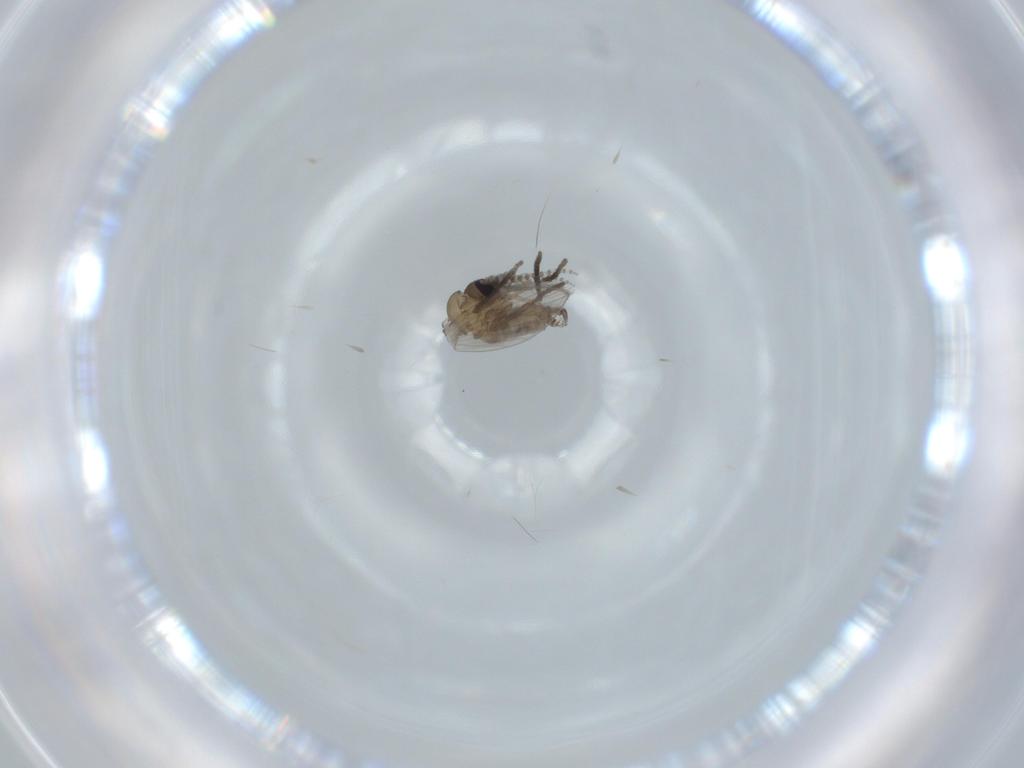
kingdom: Animalia
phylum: Arthropoda
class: Insecta
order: Diptera
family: Psychodidae
